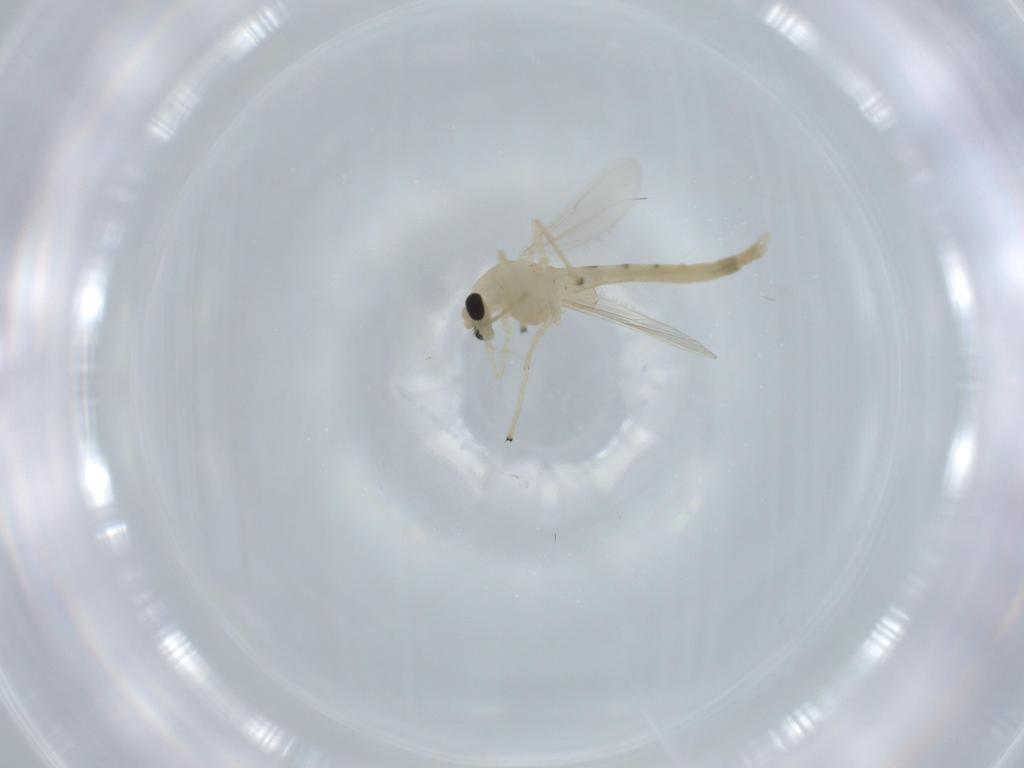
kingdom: Animalia
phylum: Arthropoda
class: Insecta
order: Diptera
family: Chironomidae
